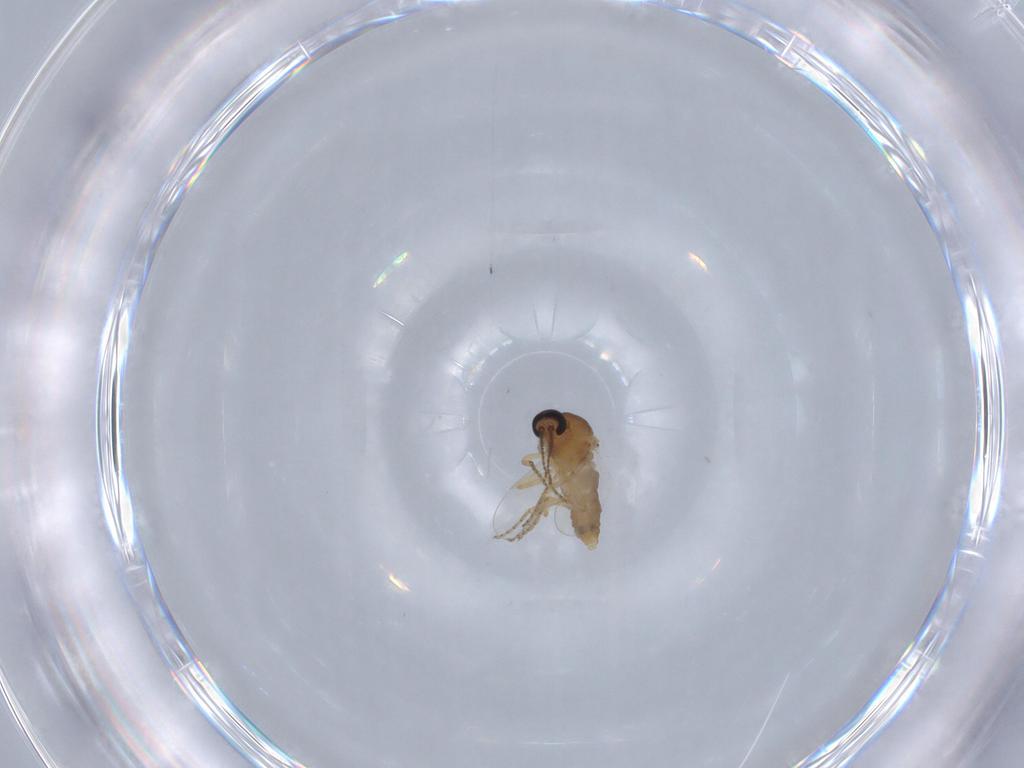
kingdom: Animalia
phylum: Arthropoda
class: Insecta
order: Diptera
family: Ceratopogonidae
